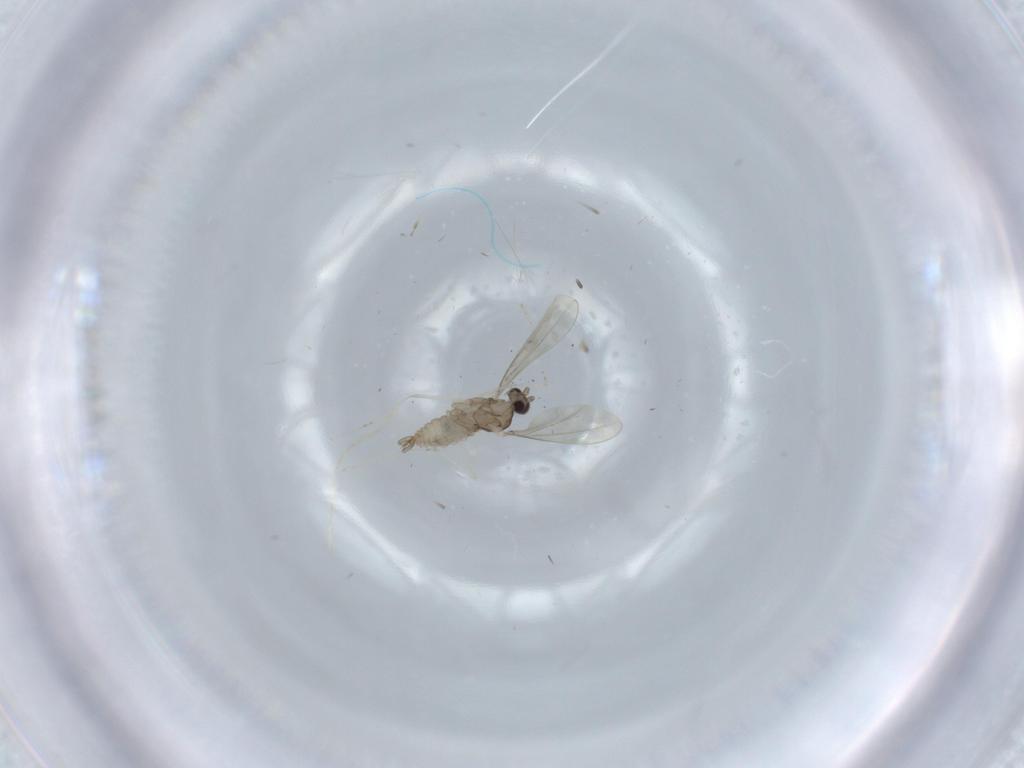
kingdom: Animalia
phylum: Arthropoda
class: Insecta
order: Diptera
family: Cecidomyiidae
